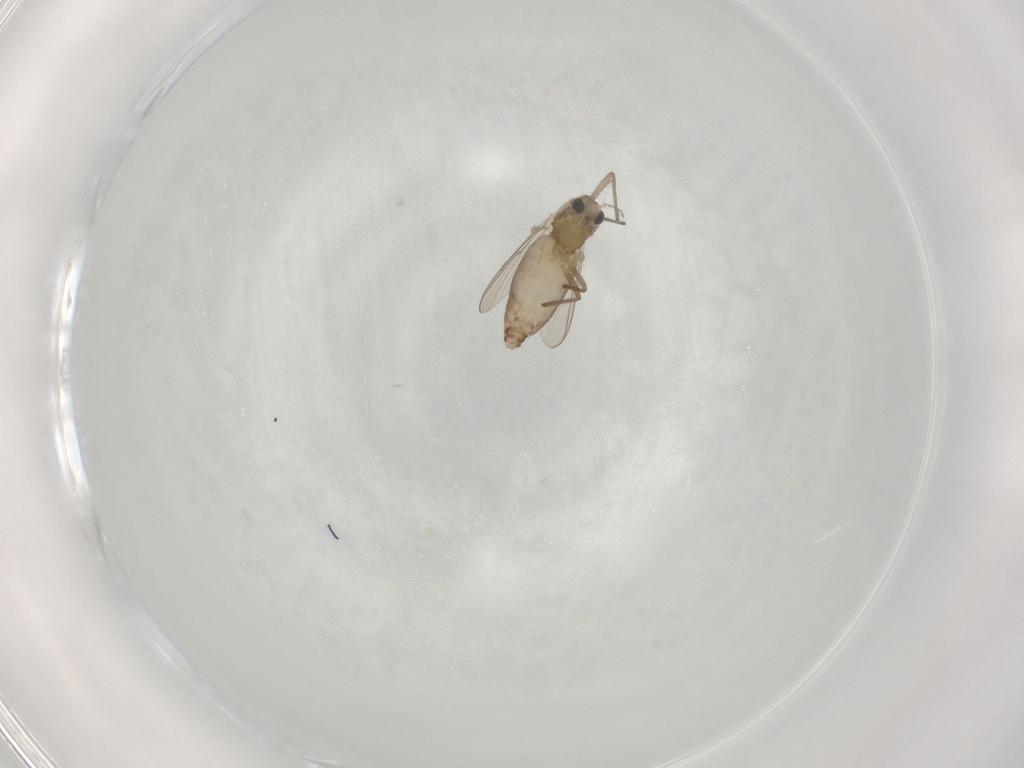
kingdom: Animalia
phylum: Arthropoda
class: Insecta
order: Diptera
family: Chironomidae
